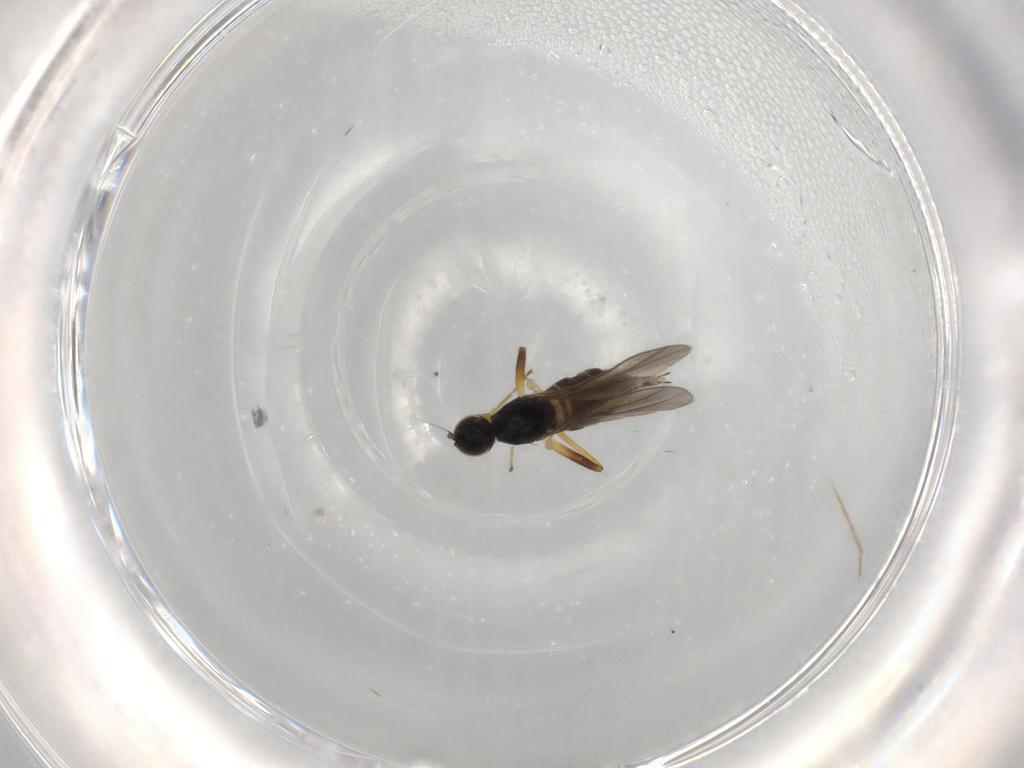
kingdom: Animalia
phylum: Arthropoda
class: Insecta
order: Diptera
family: Hybotidae
